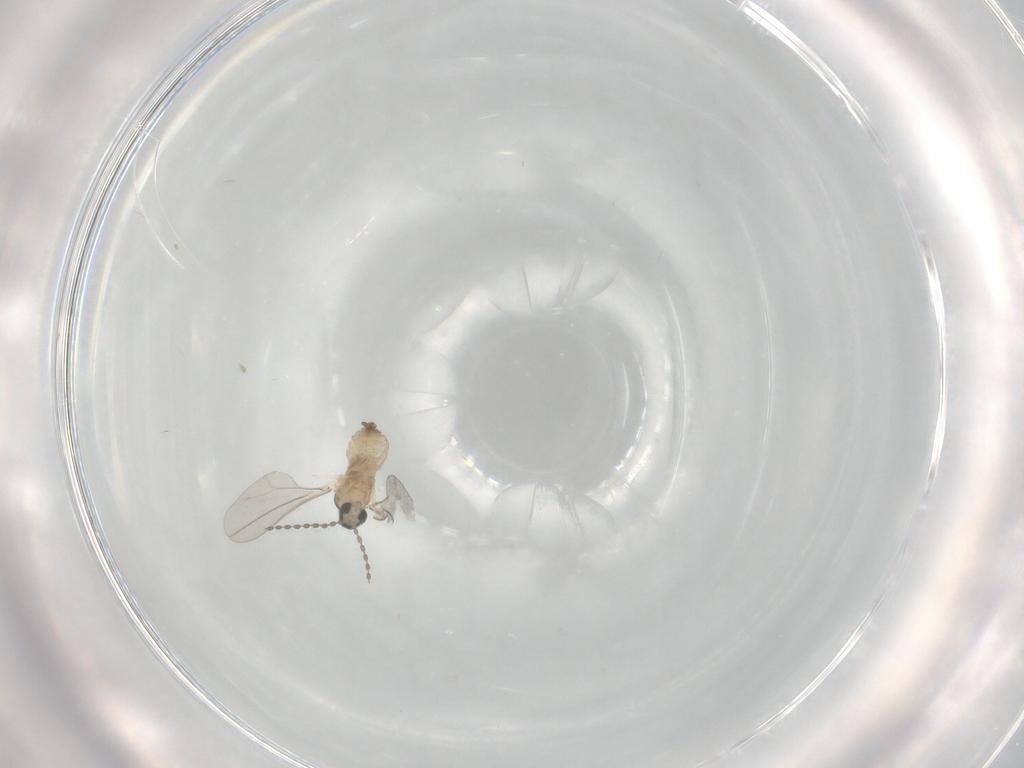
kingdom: Animalia
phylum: Arthropoda
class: Insecta
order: Diptera
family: Cecidomyiidae
